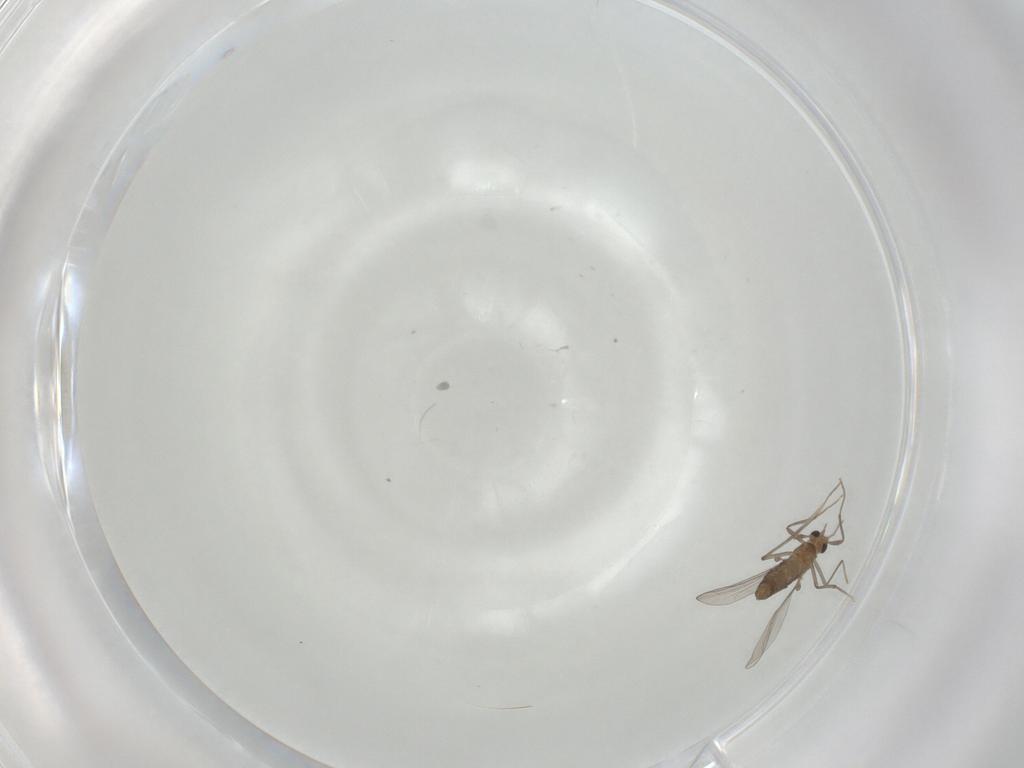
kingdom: Animalia
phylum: Arthropoda
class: Insecta
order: Diptera
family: Chironomidae
